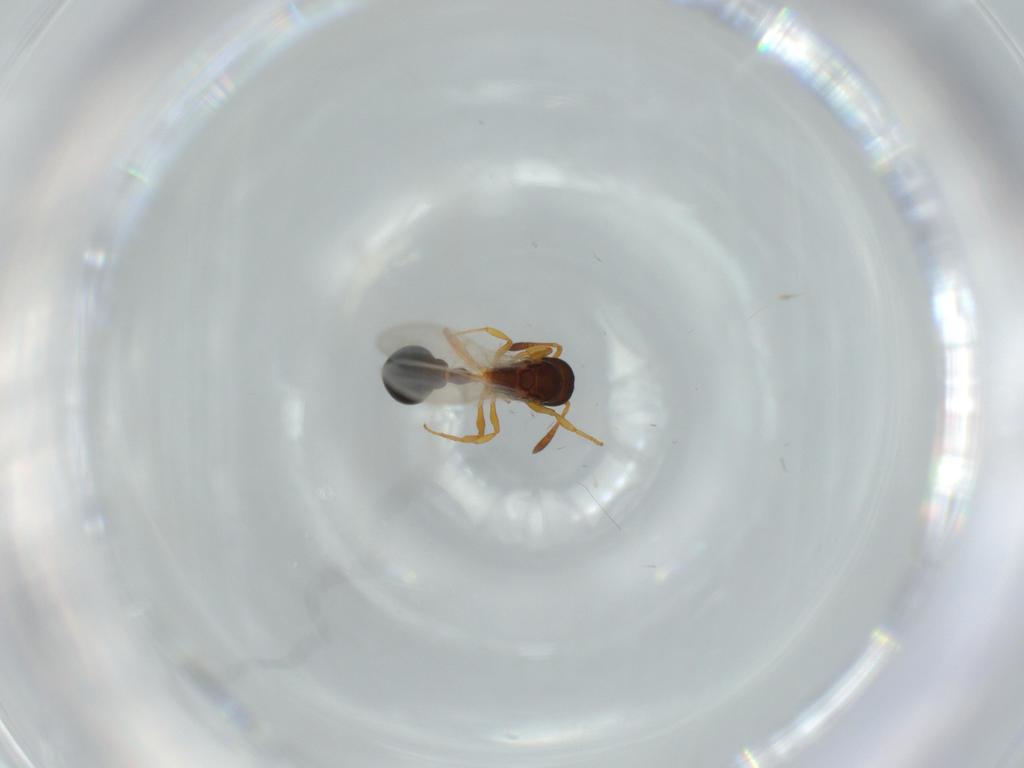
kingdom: Animalia
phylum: Arthropoda
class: Insecta
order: Hymenoptera
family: Formicidae
